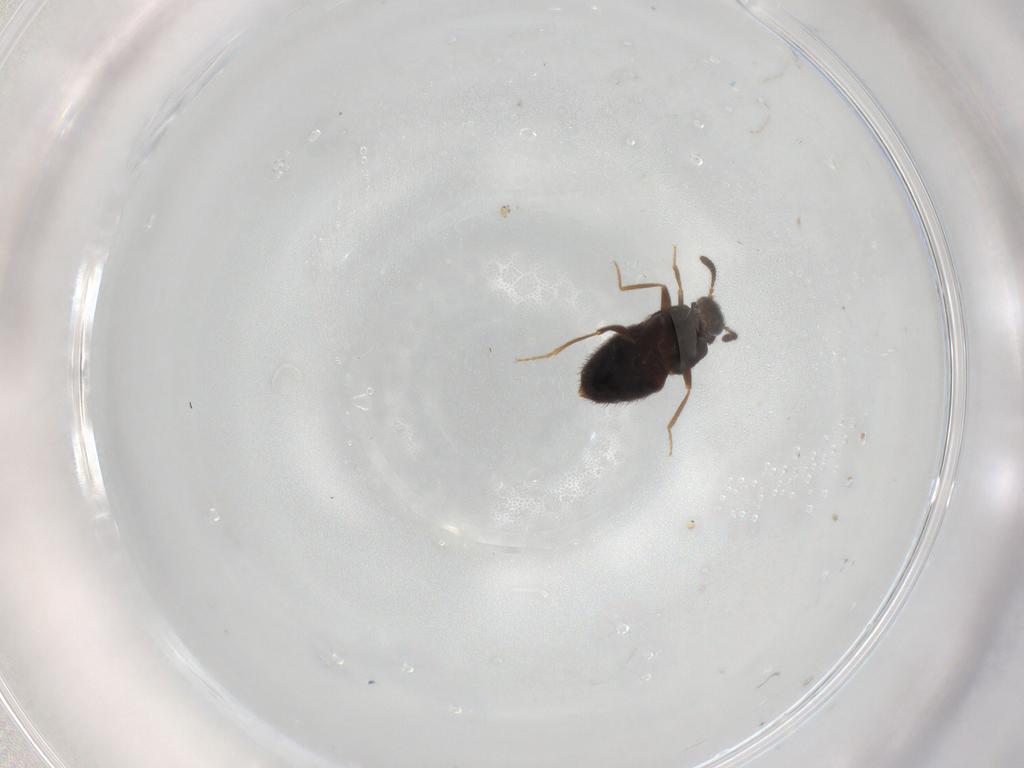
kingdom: Animalia
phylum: Arthropoda
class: Insecta
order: Coleoptera
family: Staphylinidae
